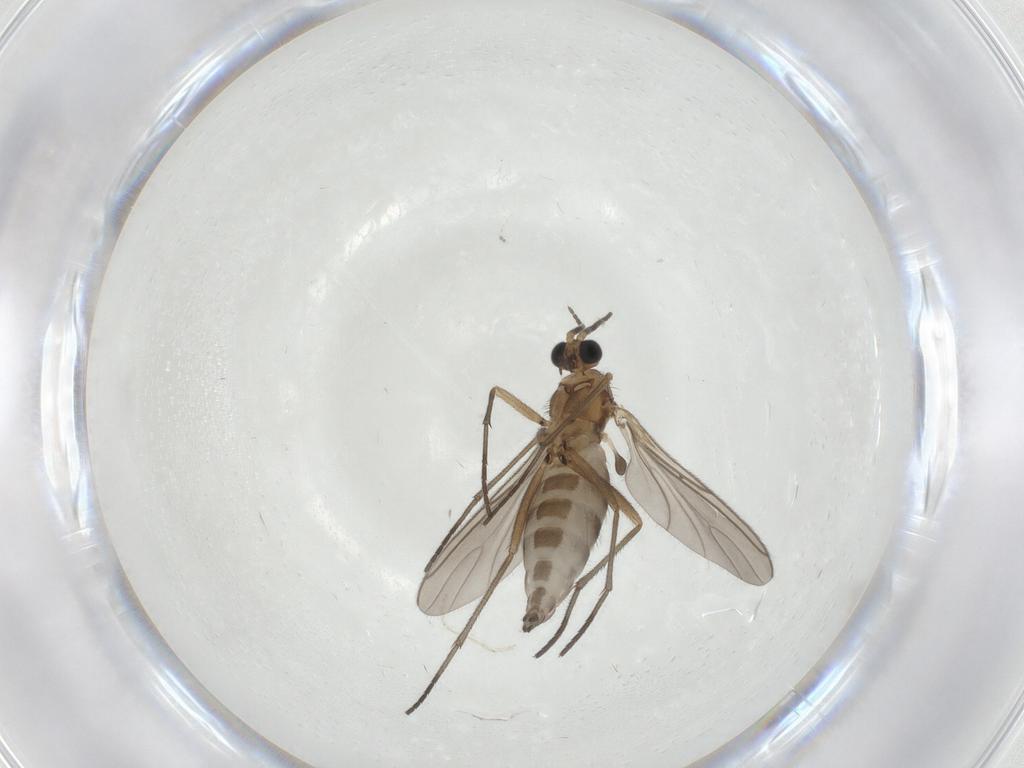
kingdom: Animalia
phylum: Arthropoda
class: Insecta
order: Diptera
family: Sciaridae
